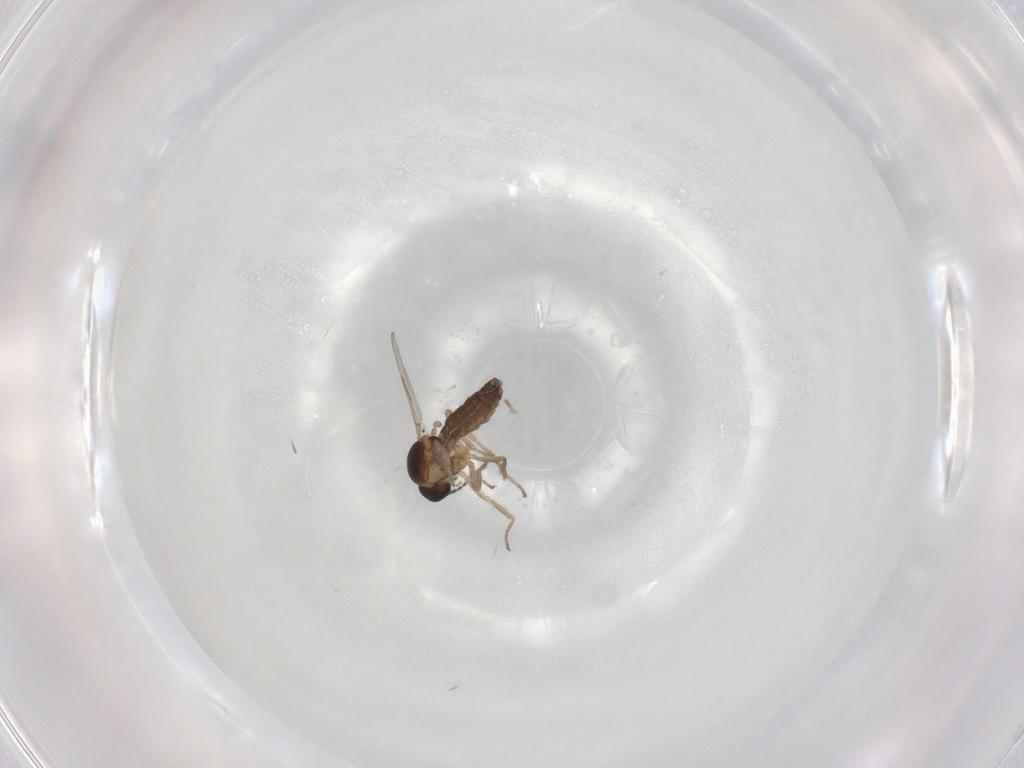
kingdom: Animalia
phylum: Arthropoda
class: Insecta
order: Diptera
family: Ceratopogonidae
